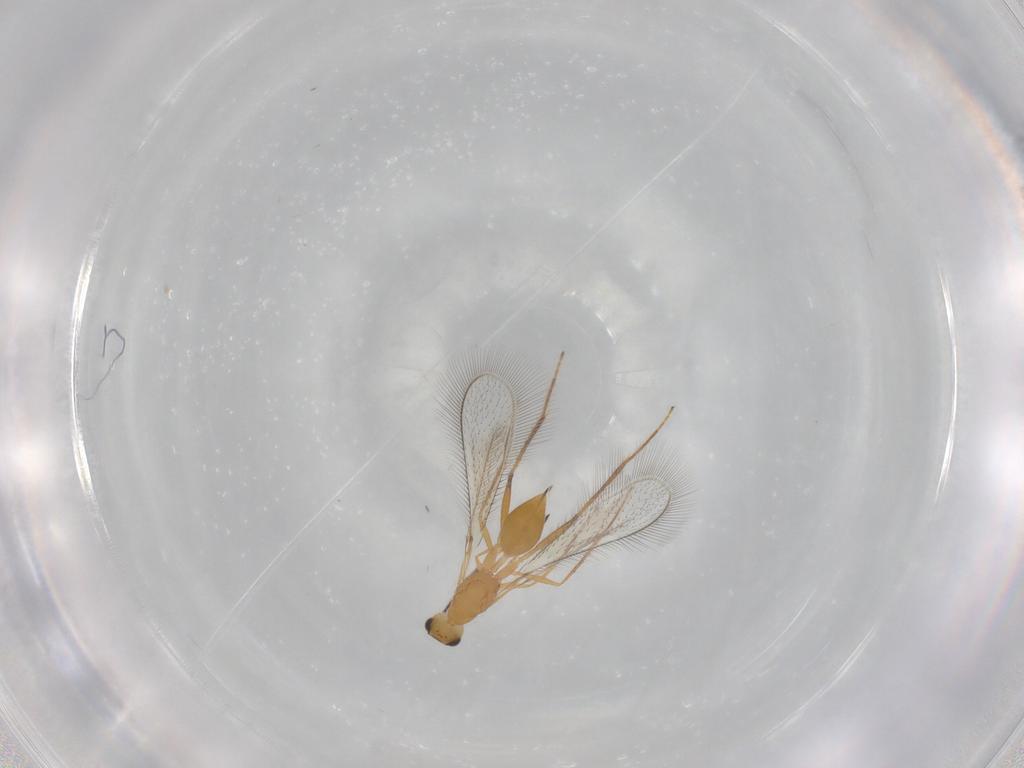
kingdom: Animalia
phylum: Arthropoda
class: Insecta
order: Hymenoptera
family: Mymaridae
